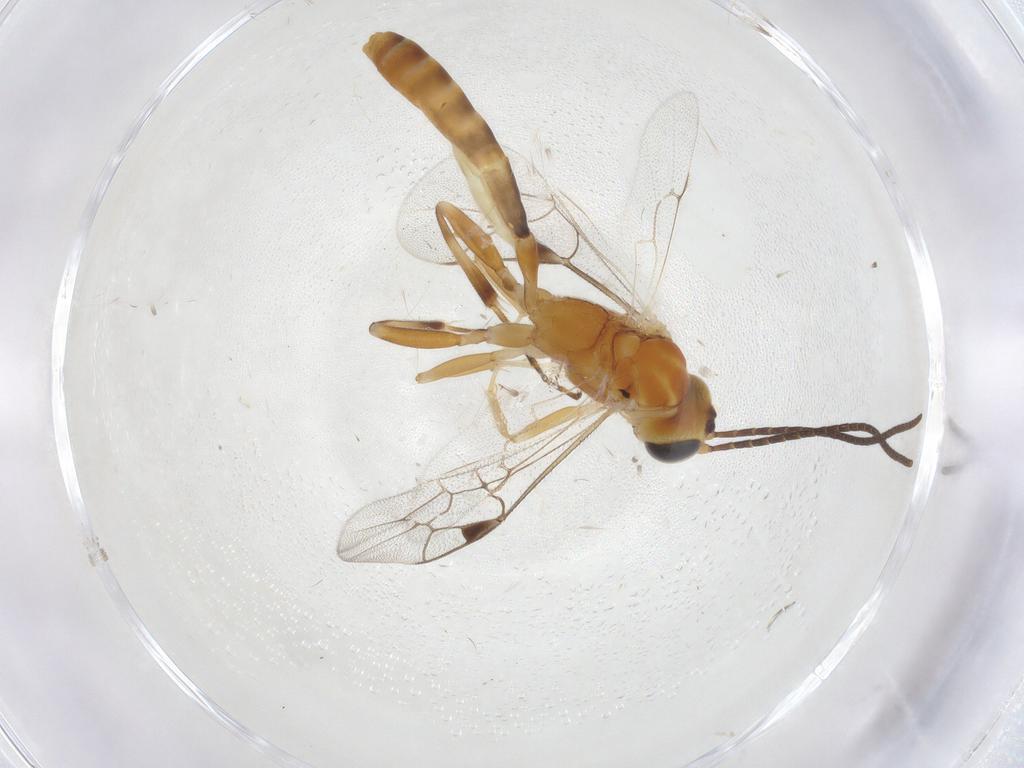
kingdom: Animalia
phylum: Arthropoda
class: Insecta
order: Hymenoptera
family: Ichneumonidae
